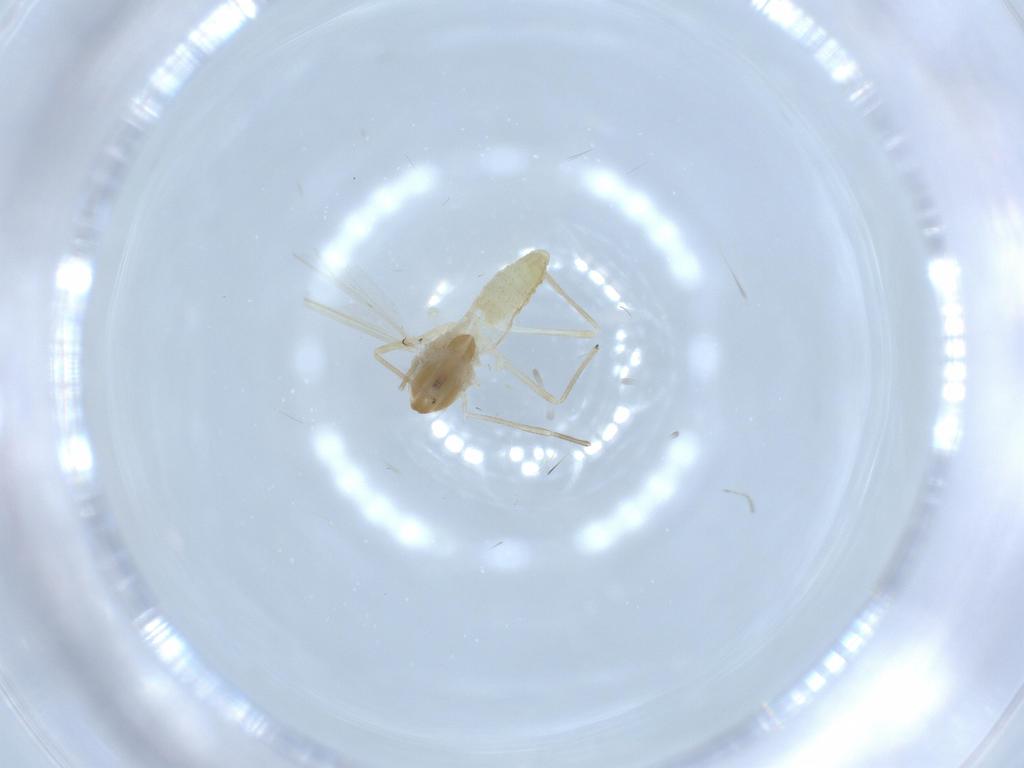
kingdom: Animalia
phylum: Arthropoda
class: Insecta
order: Diptera
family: Chironomidae
